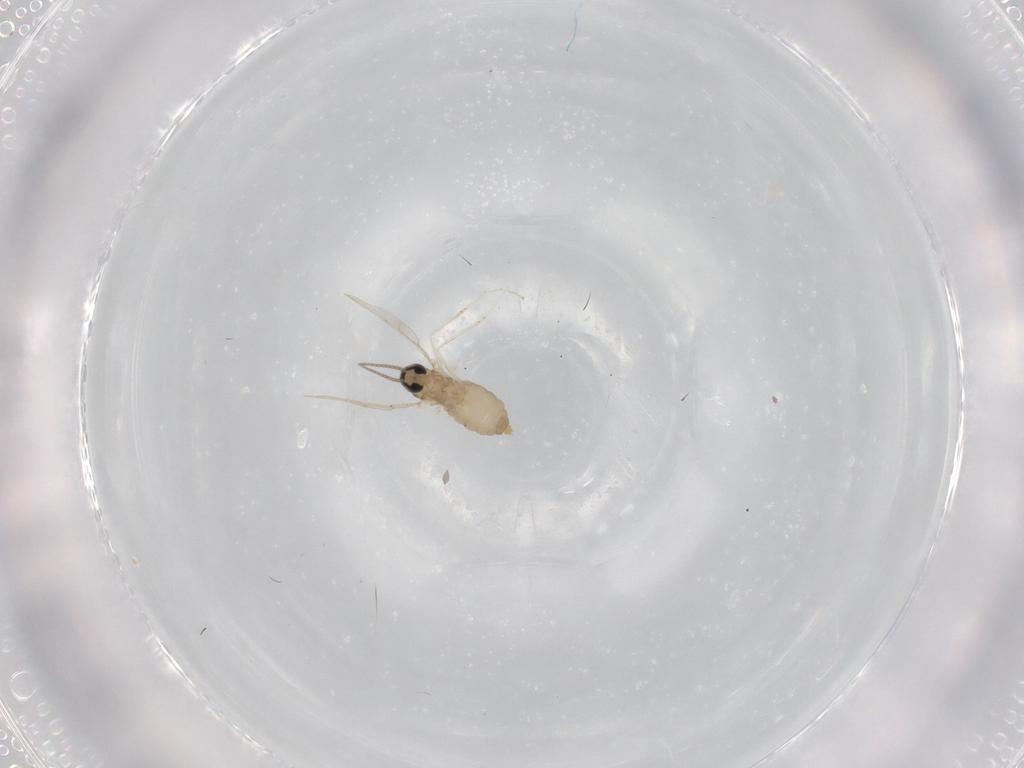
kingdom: Animalia
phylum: Arthropoda
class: Insecta
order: Diptera
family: Cecidomyiidae
